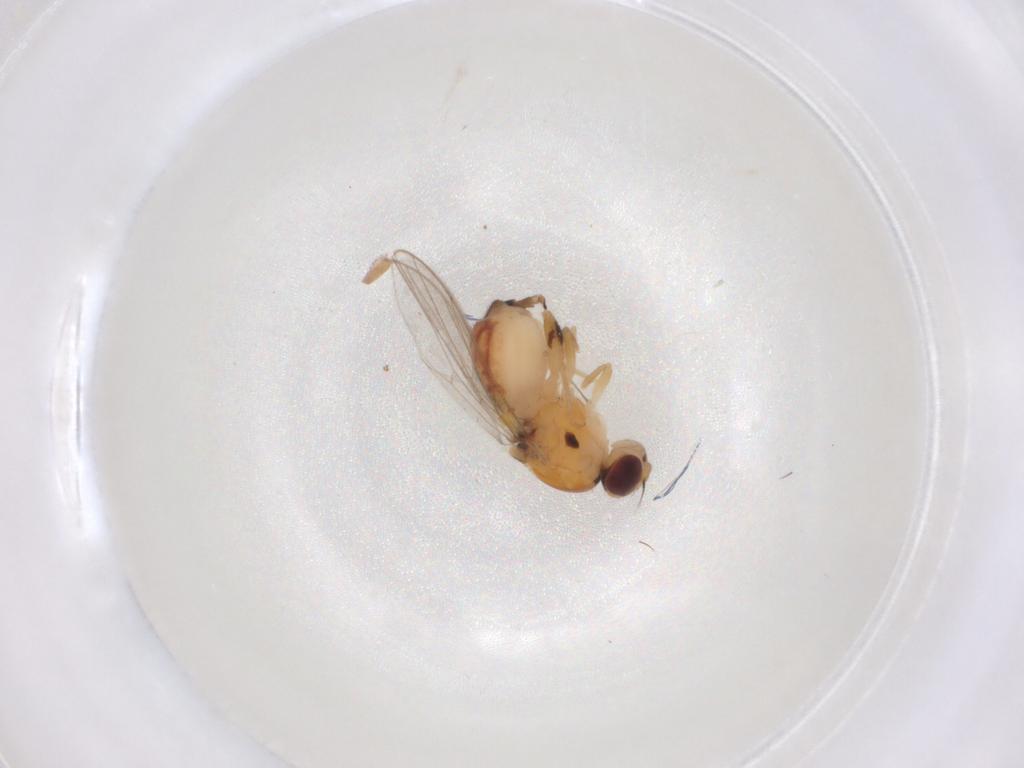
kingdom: Animalia
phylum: Arthropoda
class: Insecta
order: Diptera
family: Chloropidae
